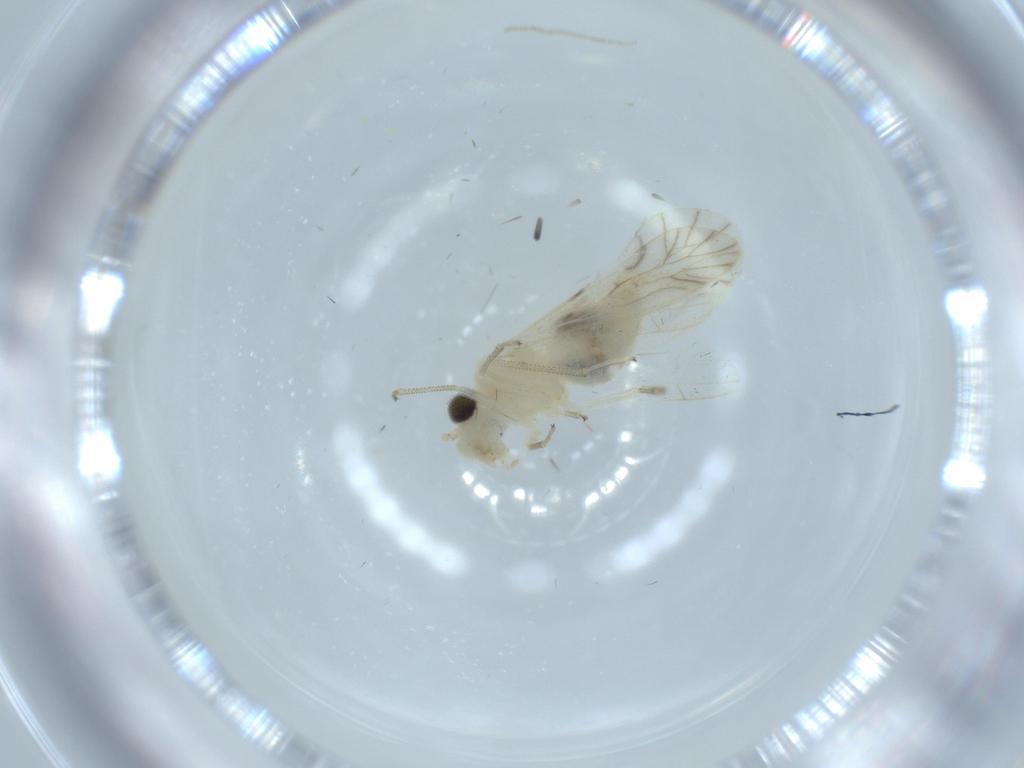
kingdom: Animalia
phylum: Arthropoda
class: Insecta
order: Psocodea
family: Caeciliusidae
